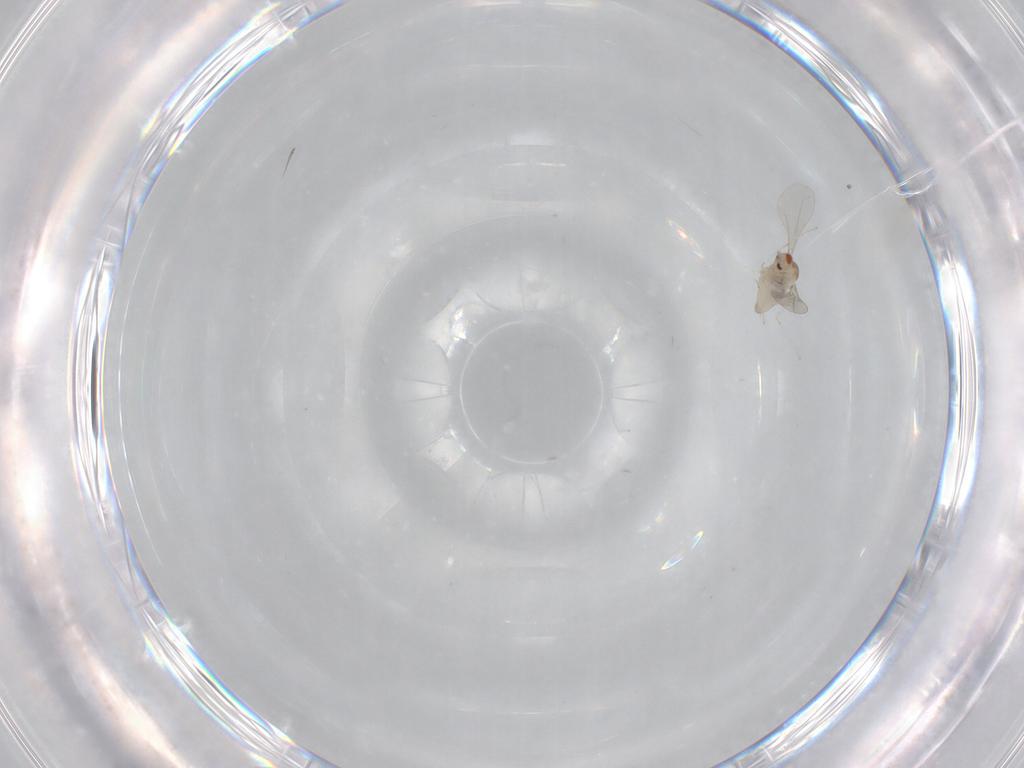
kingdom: Animalia
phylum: Arthropoda
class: Insecta
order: Diptera
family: Cecidomyiidae
